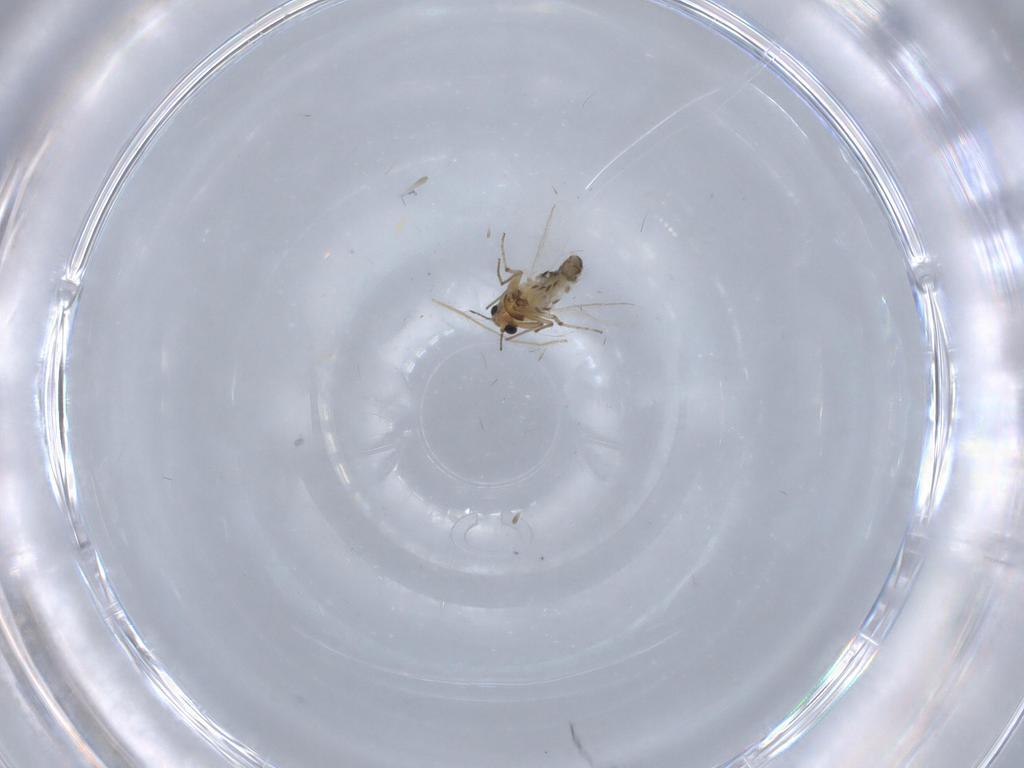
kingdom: Animalia
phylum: Arthropoda
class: Insecta
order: Diptera
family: Chironomidae
